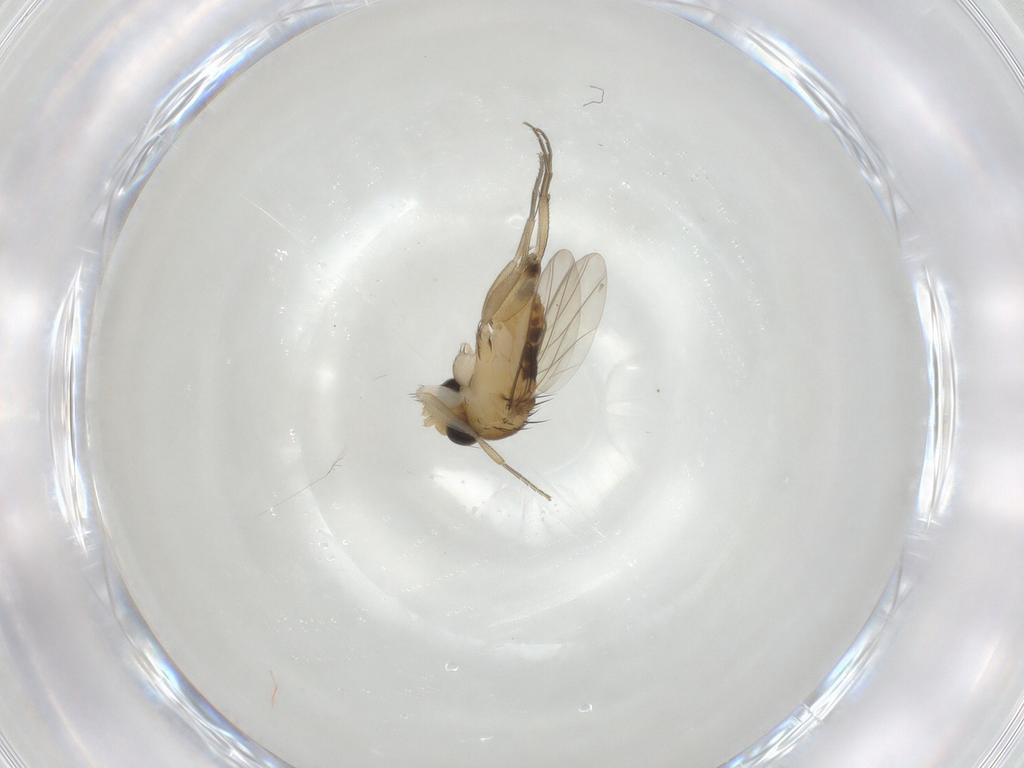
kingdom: Animalia
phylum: Arthropoda
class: Insecta
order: Diptera
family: Phoridae
